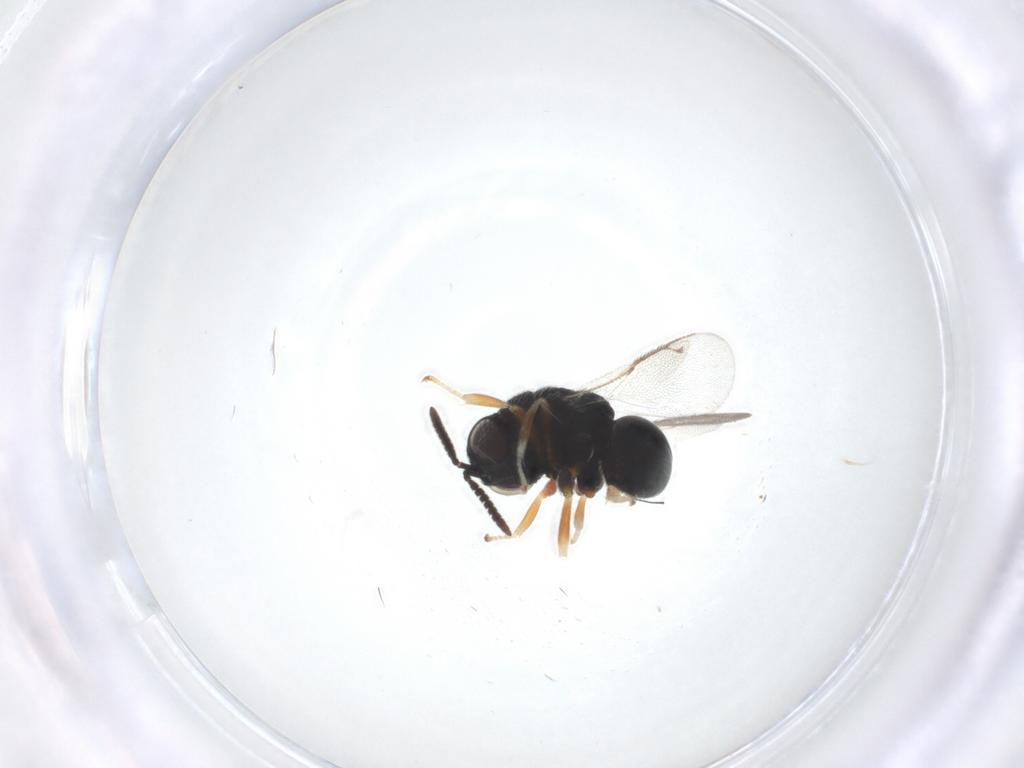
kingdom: Animalia
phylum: Arthropoda
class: Insecta
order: Hymenoptera
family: Eurytomidae
